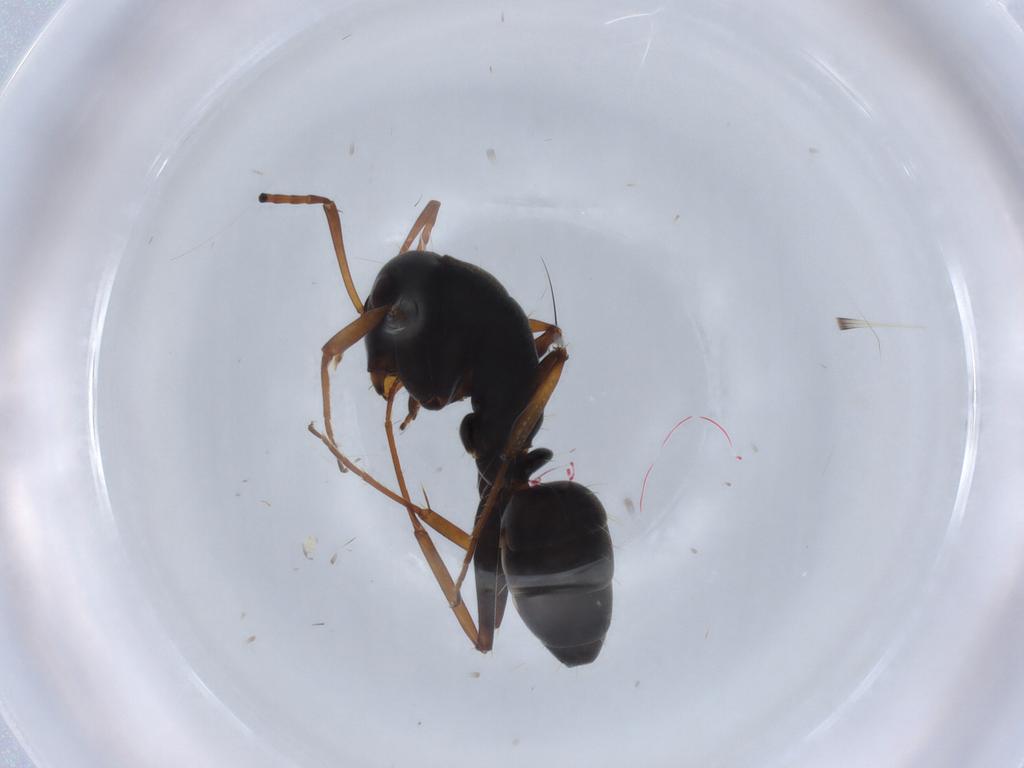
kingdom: Animalia
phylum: Arthropoda
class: Insecta
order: Hymenoptera
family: Formicidae
